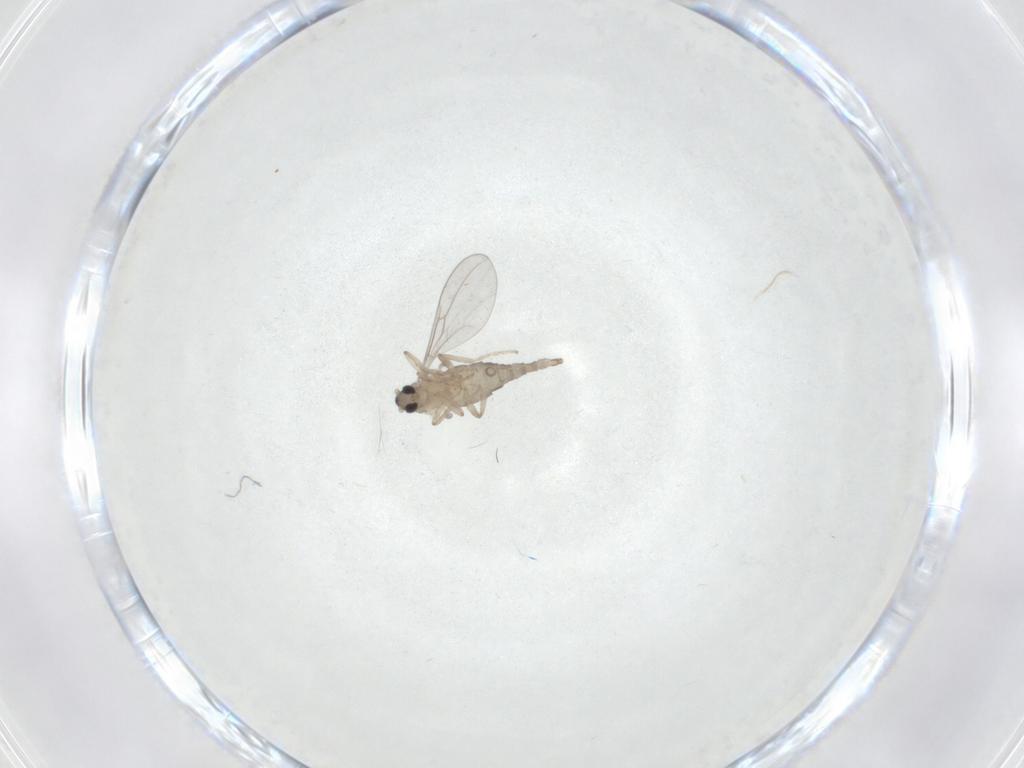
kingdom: Animalia
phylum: Arthropoda
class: Insecta
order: Diptera
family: Cecidomyiidae
